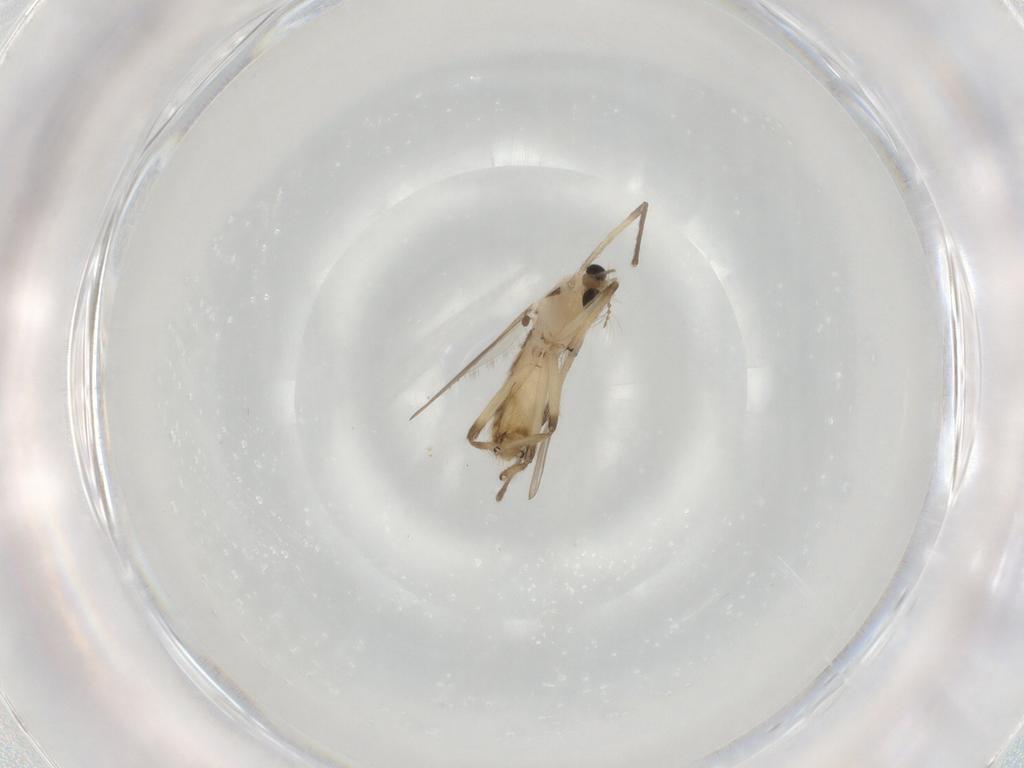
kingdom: Animalia
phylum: Arthropoda
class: Insecta
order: Diptera
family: Chironomidae
